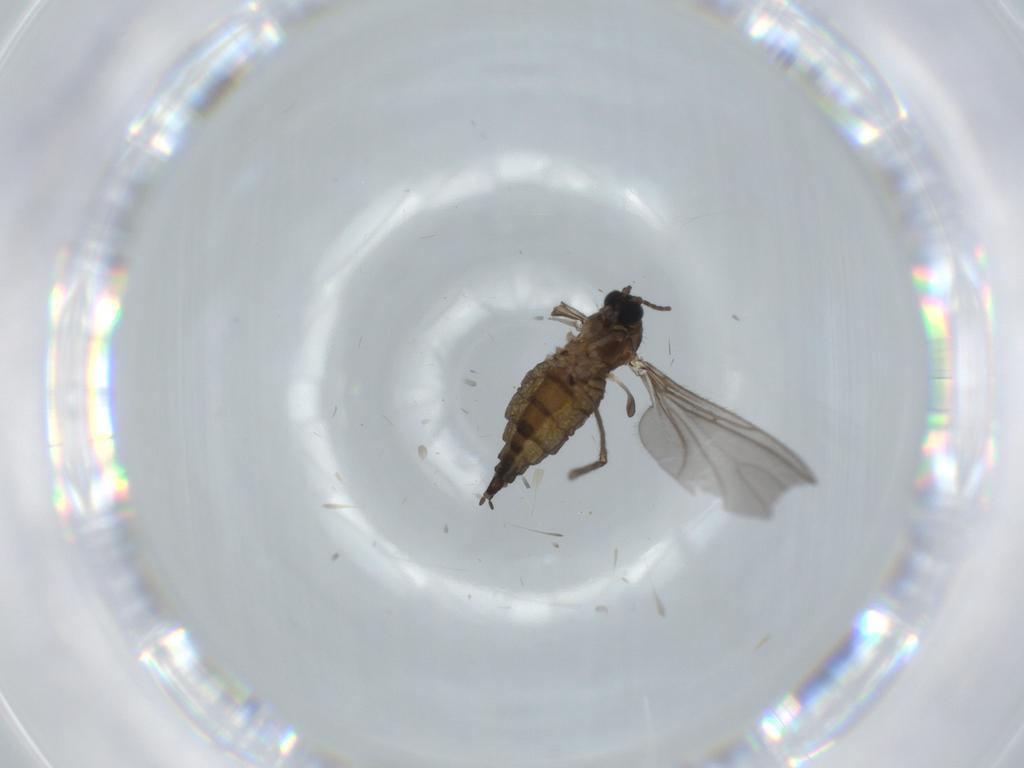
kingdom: Animalia
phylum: Arthropoda
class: Insecta
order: Diptera
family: Sciaridae
